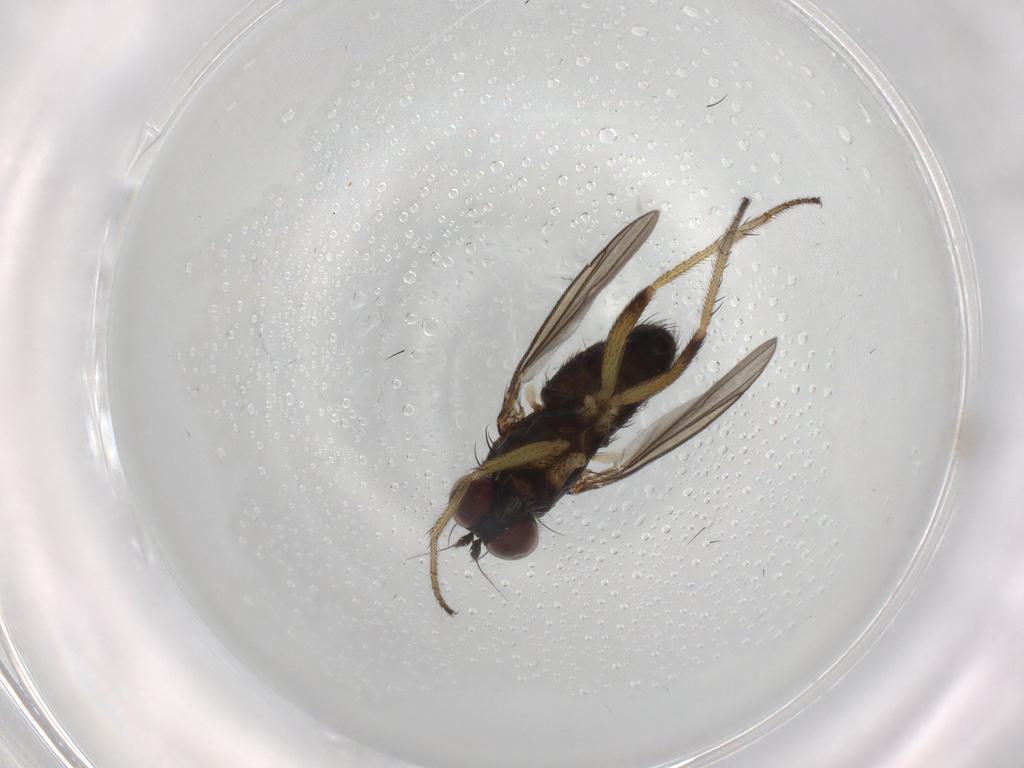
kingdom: Animalia
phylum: Arthropoda
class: Insecta
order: Diptera
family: Dolichopodidae
